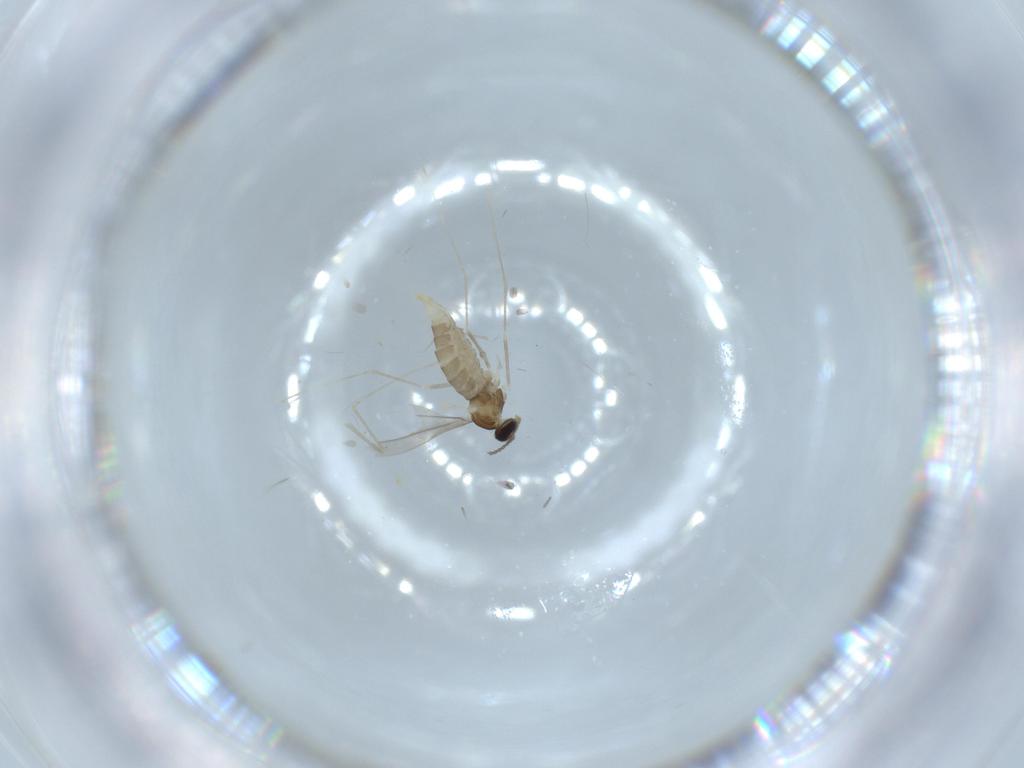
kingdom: Animalia
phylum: Arthropoda
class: Insecta
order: Diptera
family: Cecidomyiidae
